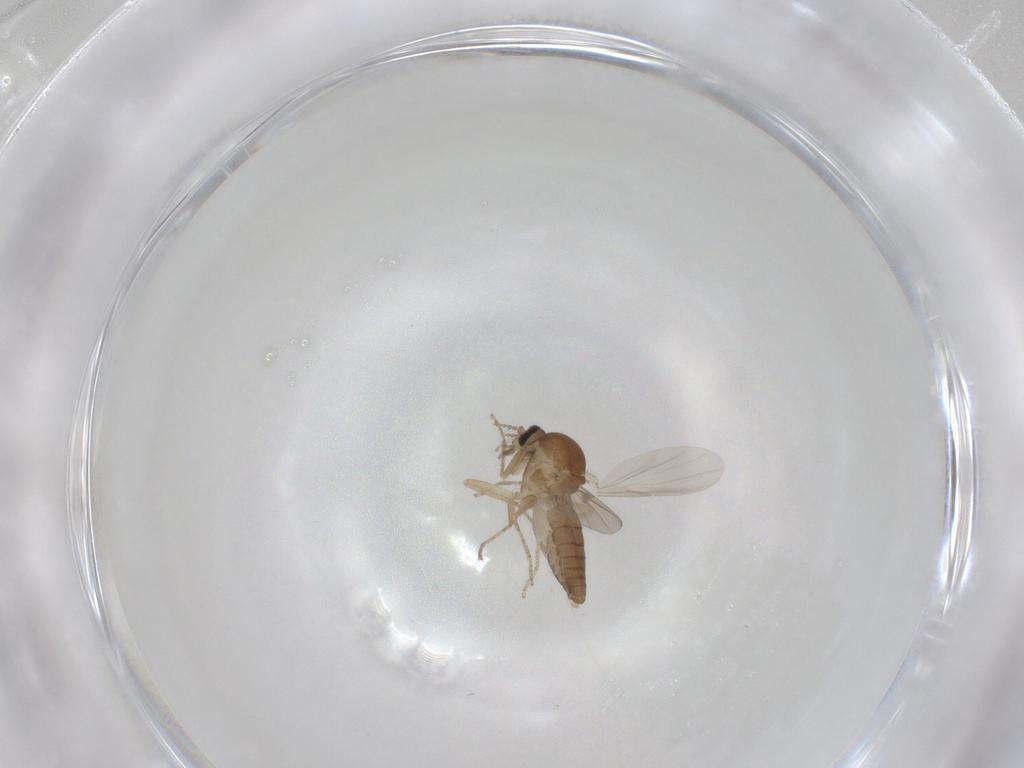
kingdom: Animalia
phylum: Arthropoda
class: Insecta
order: Diptera
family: Ceratopogonidae
